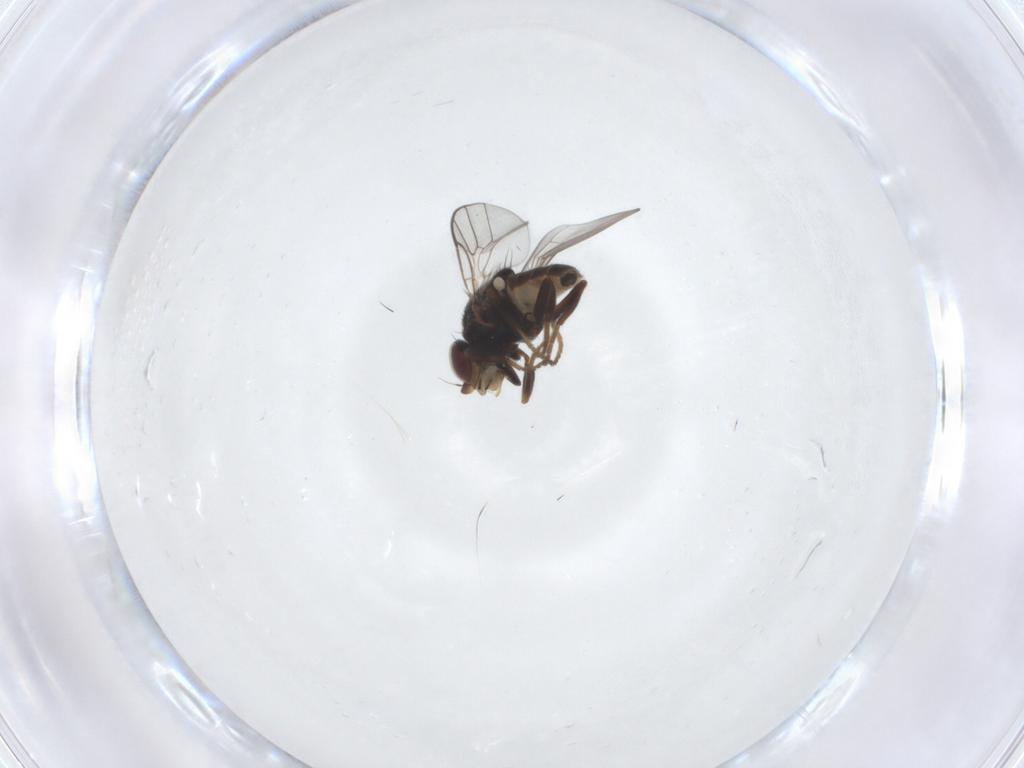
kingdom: Animalia
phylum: Arthropoda
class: Insecta
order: Diptera
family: Chloropidae
